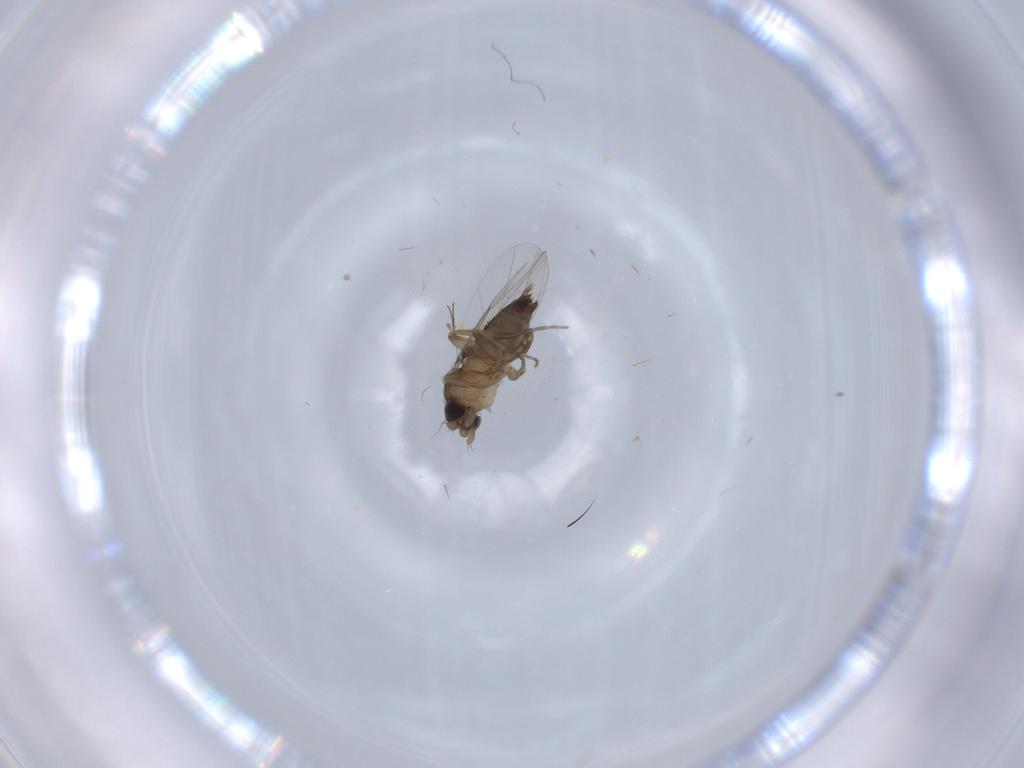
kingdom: Animalia
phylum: Arthropoda
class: Insecta
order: Diptera
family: Phoridae
